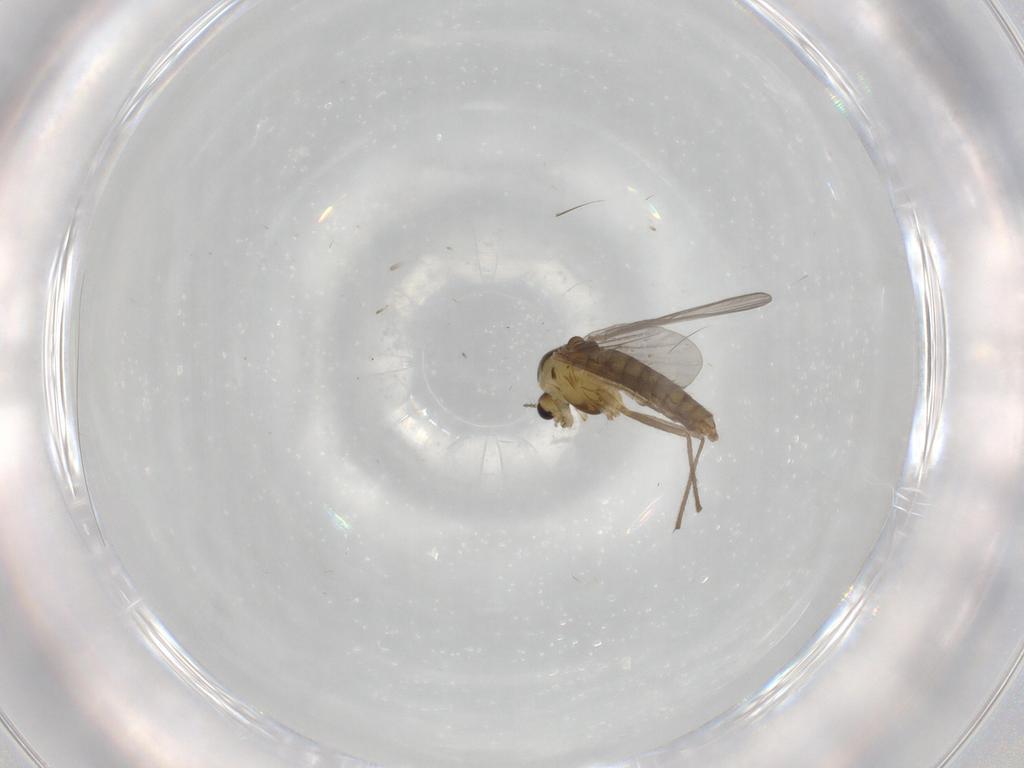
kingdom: Animalia
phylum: Arthropoda
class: Insecta
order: Diptera
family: Chironomidae
